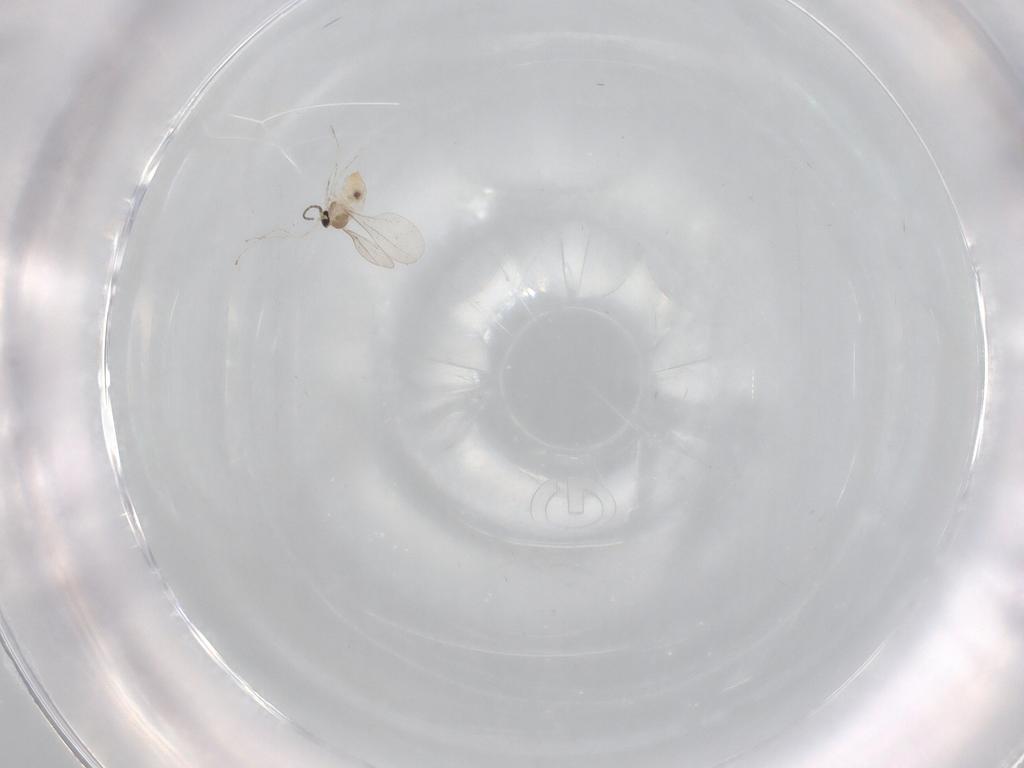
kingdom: Animalia
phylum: Arthropoda
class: Insecta
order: Diptera
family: Cecidomyiidae
